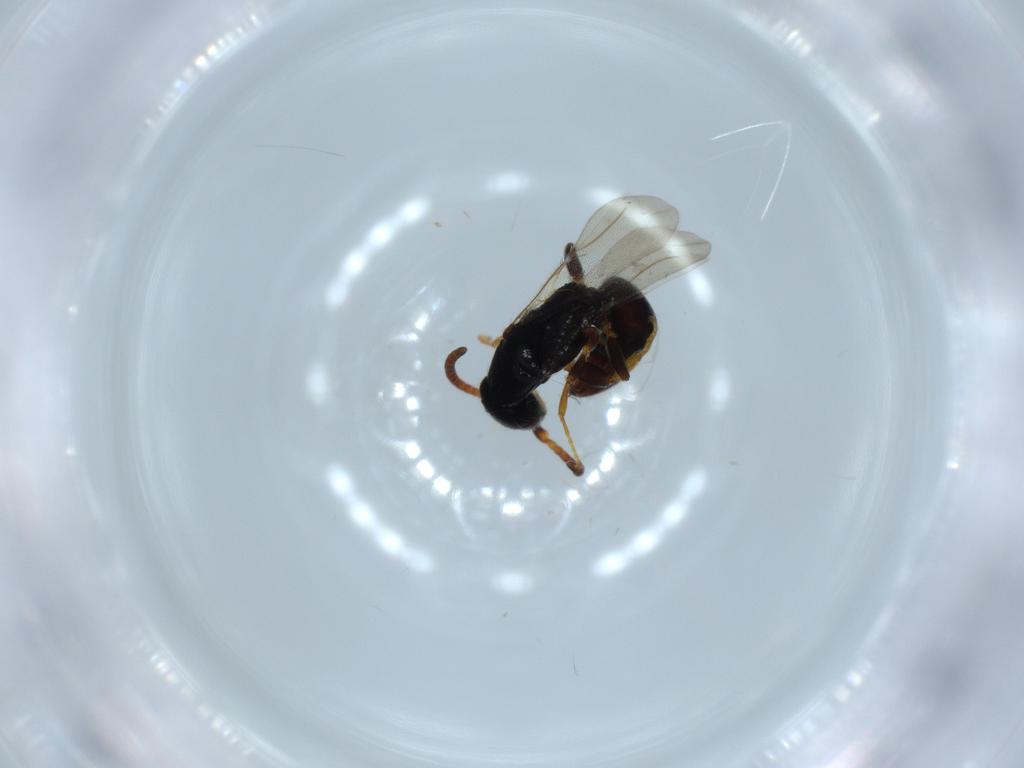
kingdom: Animalia
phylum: Arthropoda
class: Insecta
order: Hymenoptera
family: Bethylidae
